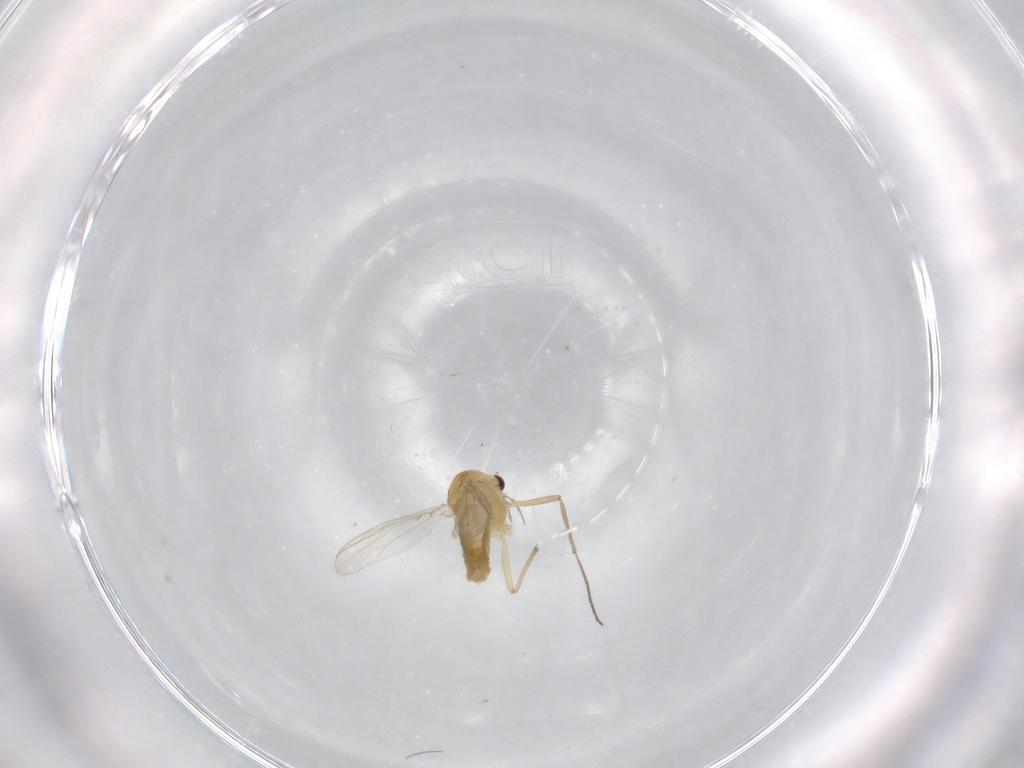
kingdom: Animalia
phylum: Arthropoda
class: Insecta
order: Diptera
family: Chironomidae
